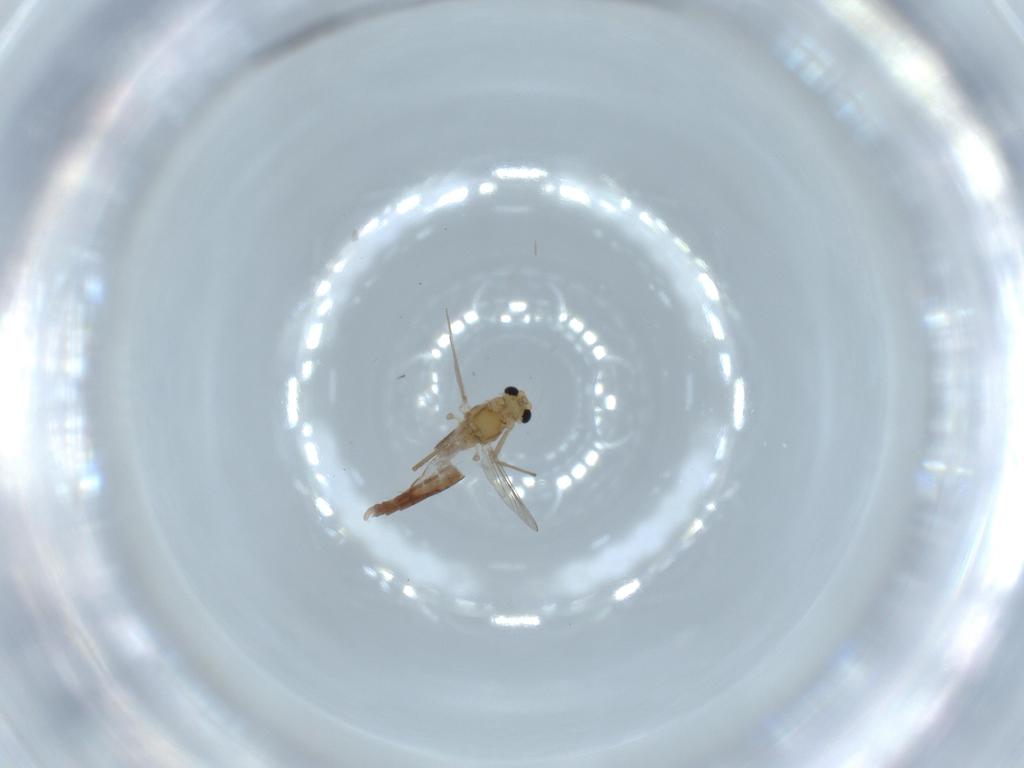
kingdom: Animalia
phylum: Arthropoda
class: Insecta
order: Diptera
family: Chironomidae
